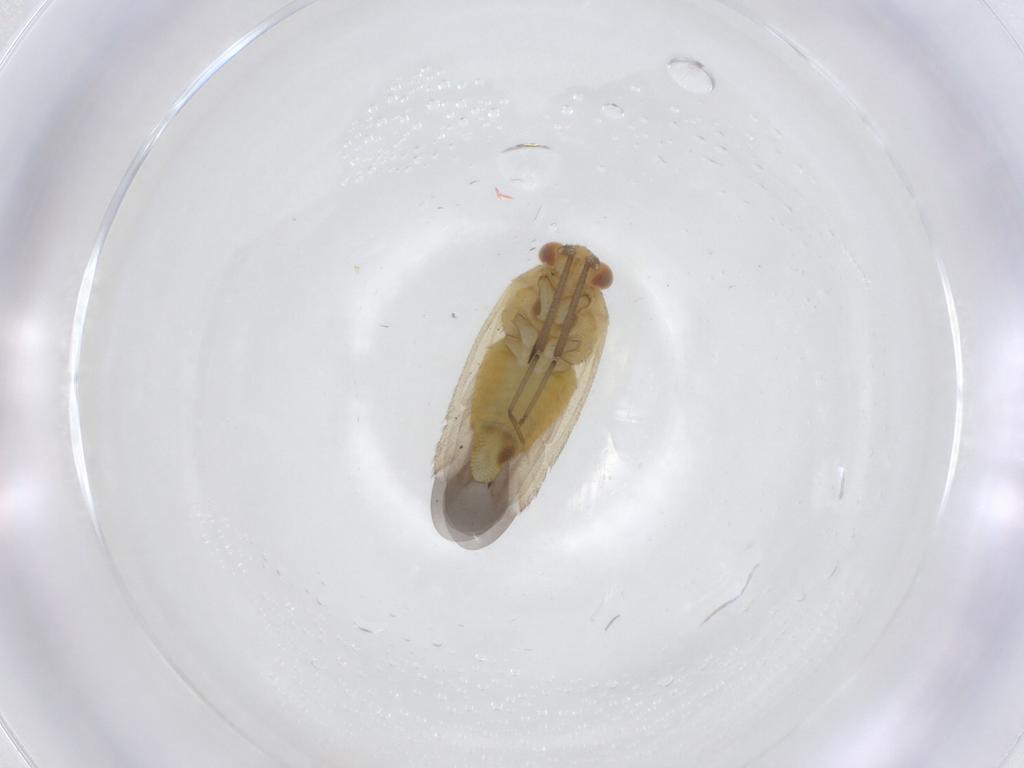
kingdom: Animalia
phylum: Arthropoda
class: Insecta
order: Hemiptera
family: Miridae
